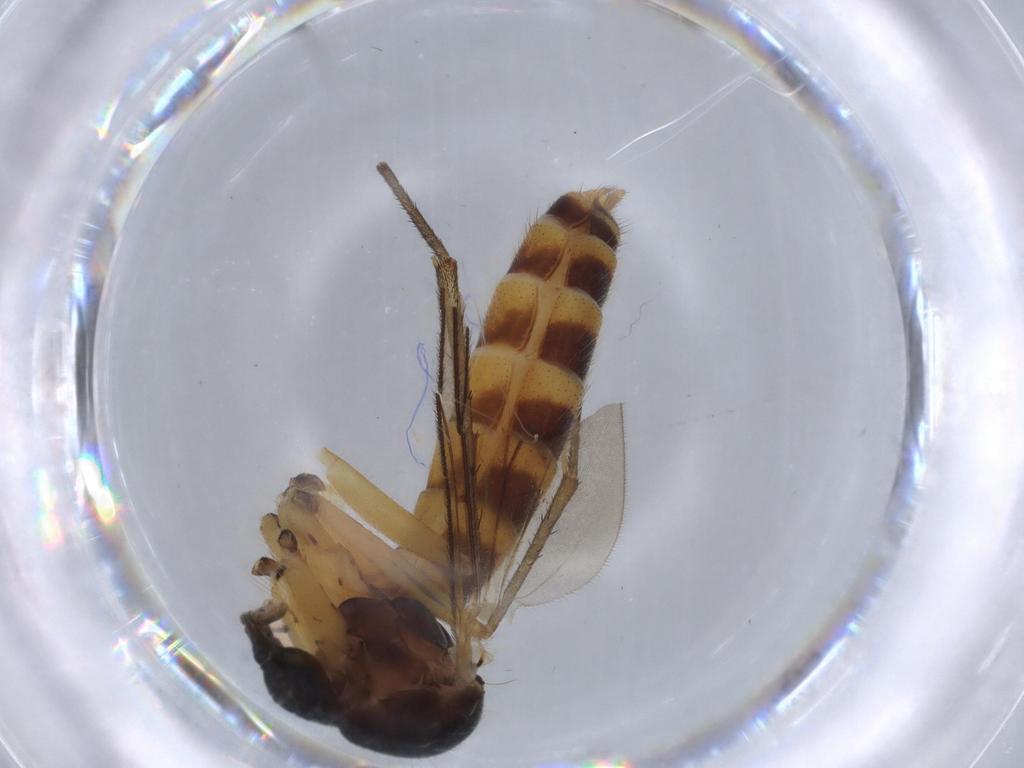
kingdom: Animalia
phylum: Arthropoda
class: Insecta
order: Diptera
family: Mycetophilidae
